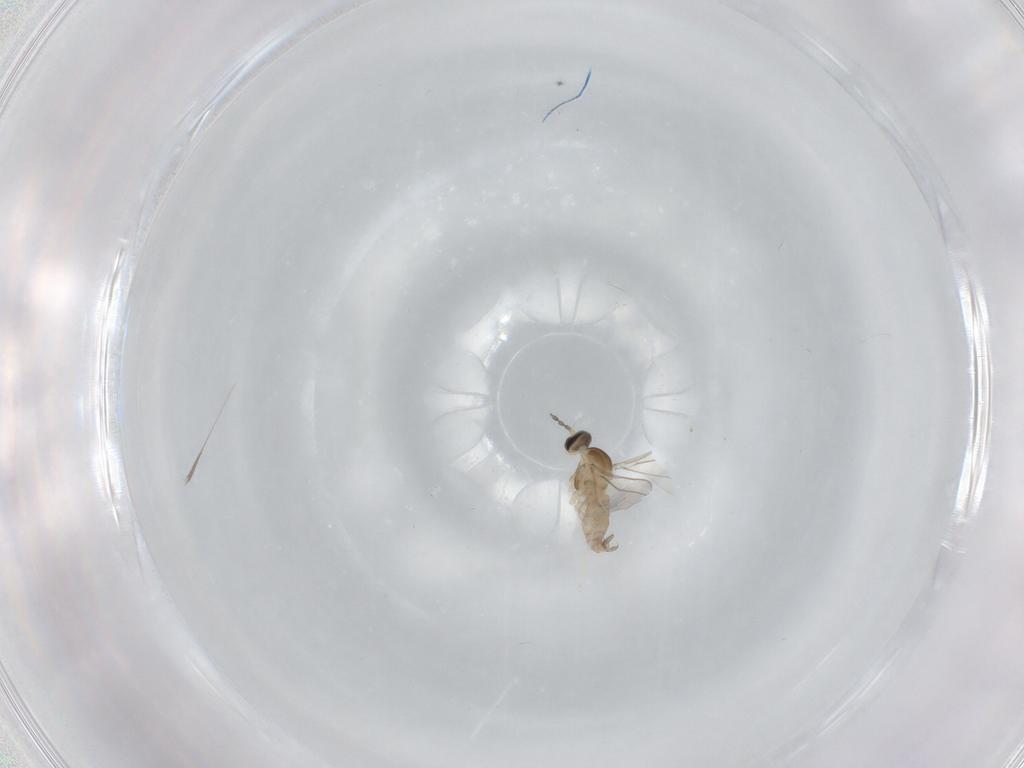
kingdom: Animalia
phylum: Arthropoda
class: Insecta
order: Diptera
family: Cecidomyiidae
